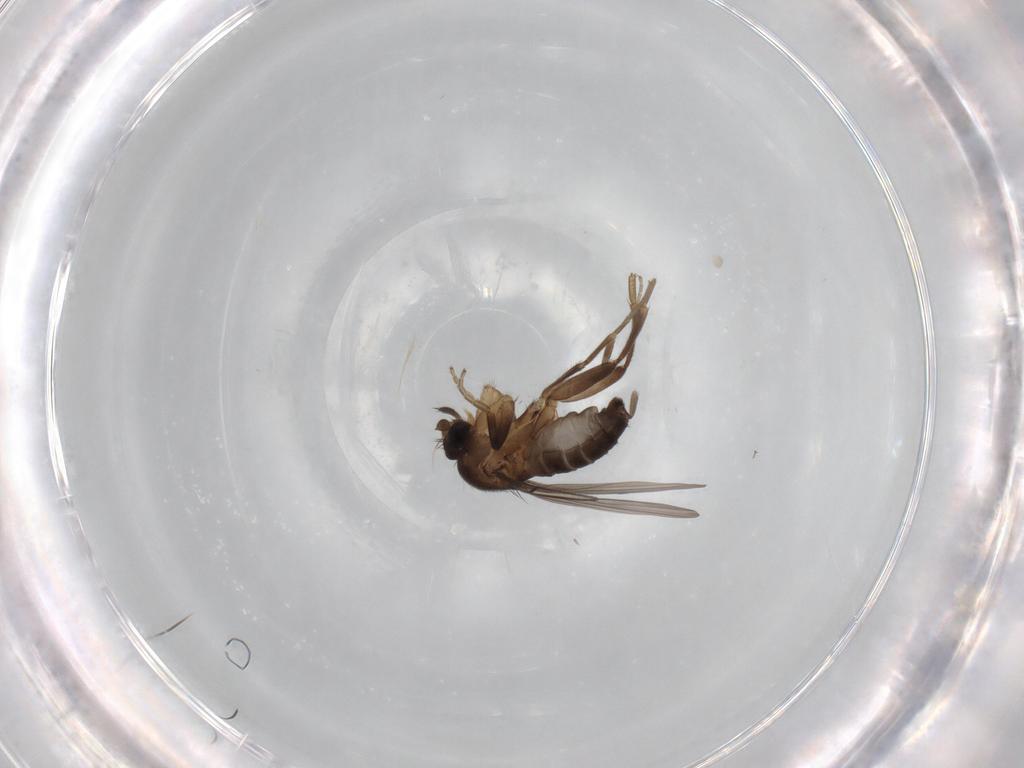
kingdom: Animalia
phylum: Arthropoda
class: Insecta
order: Diptera
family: Phoridae
